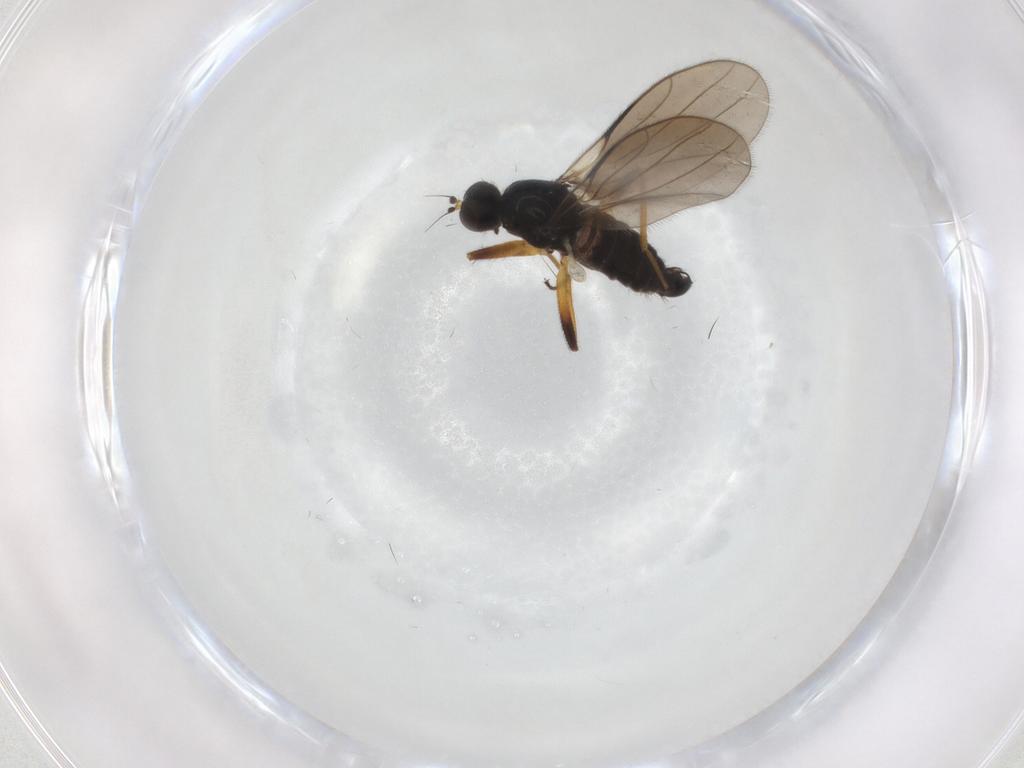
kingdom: Animalia
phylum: Arthropoda
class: Insecta
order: Diptera
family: Hybotidae
